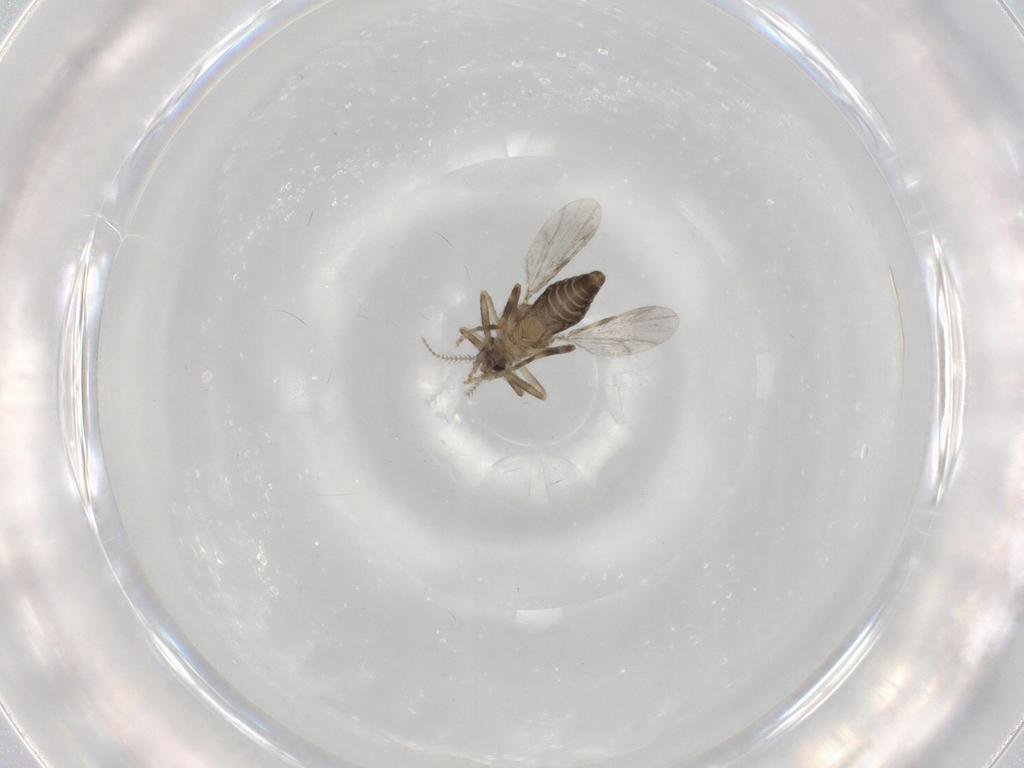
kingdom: Animalia
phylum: Arthropoda
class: Insecta
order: Diptera
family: Ceratopogonidae
